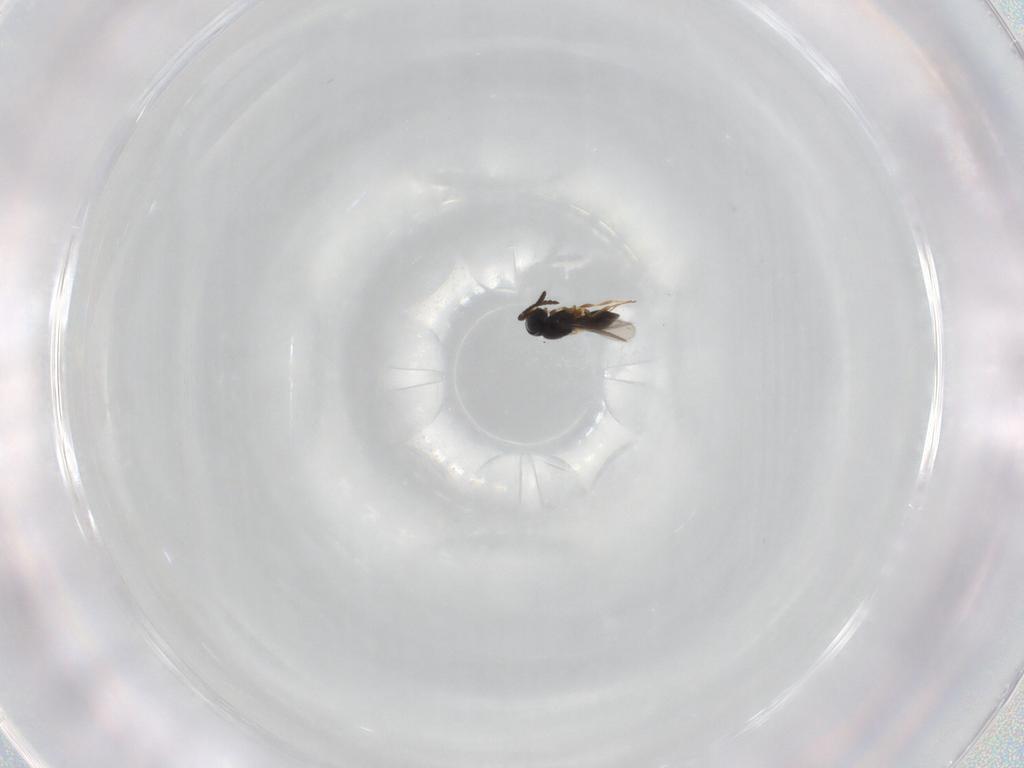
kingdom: Animalia
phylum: Arthropoda
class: Insecta
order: Hymenoptera
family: Scelionidae
